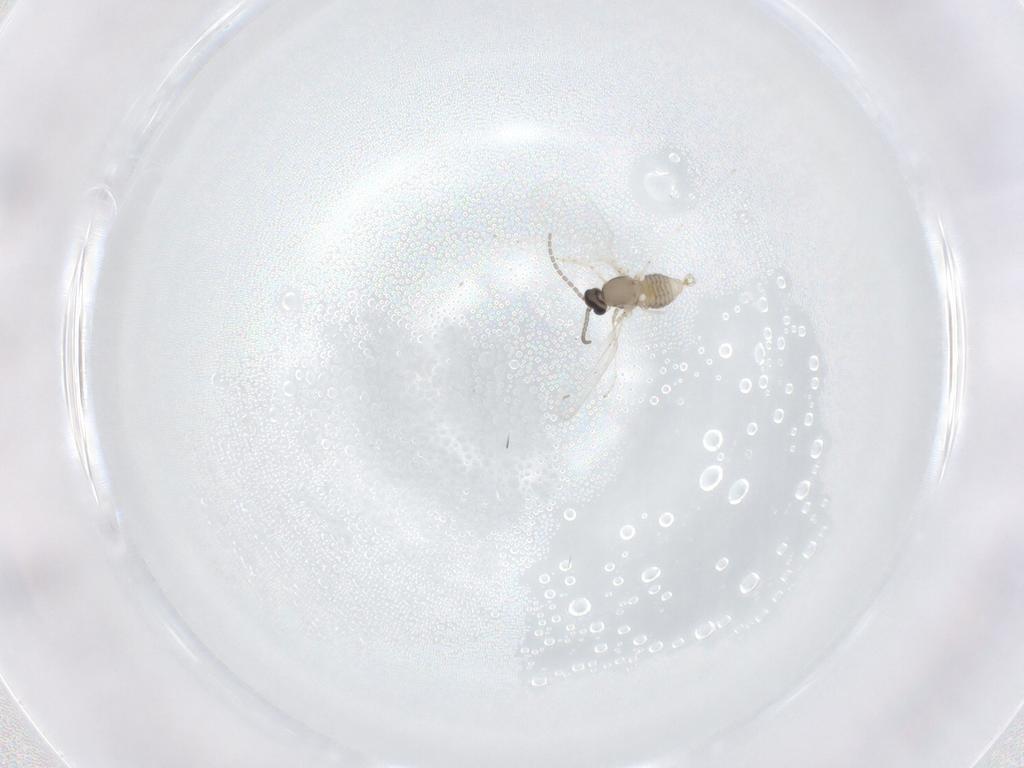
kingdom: Animalia
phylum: Arthropoda
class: Insecta
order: Diptera
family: Cecidomyiidae
